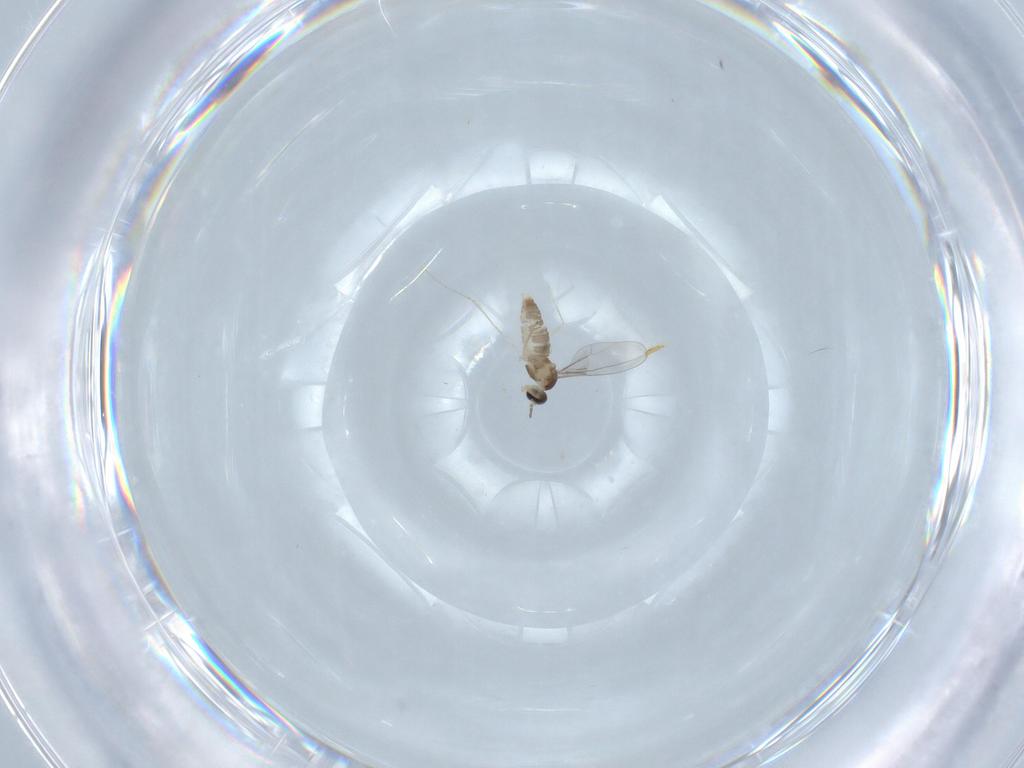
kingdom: Animalia
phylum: Arthropoda
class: Insecta
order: Diptera
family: Cecidomyiidae
